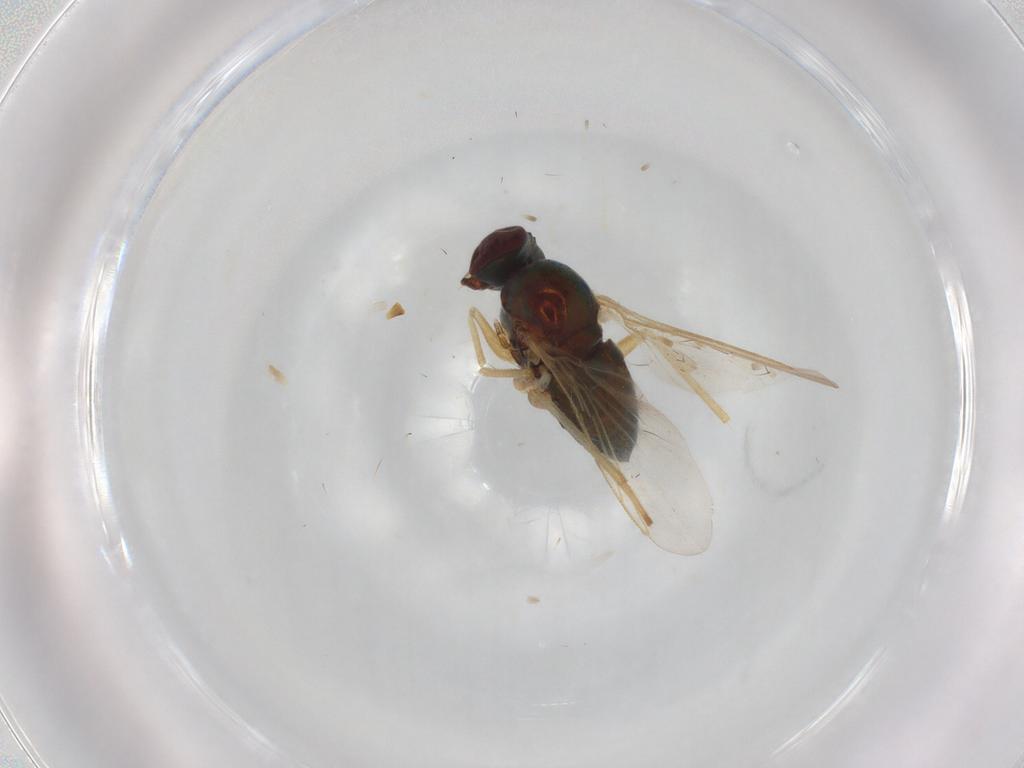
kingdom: Animalia
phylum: Arthropoda
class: Insecta
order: Diptera
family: Dolichopodidae
